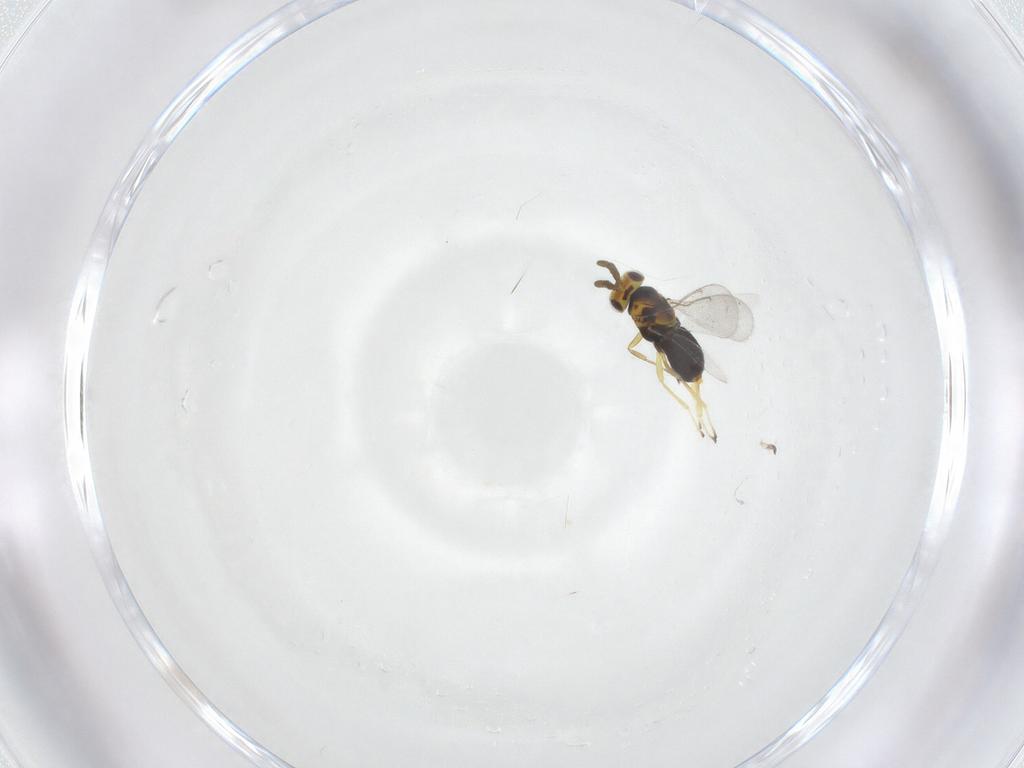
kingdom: Animalia
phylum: Arthropoda
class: Insecta
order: Hymenoptera
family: Aphelinidae
